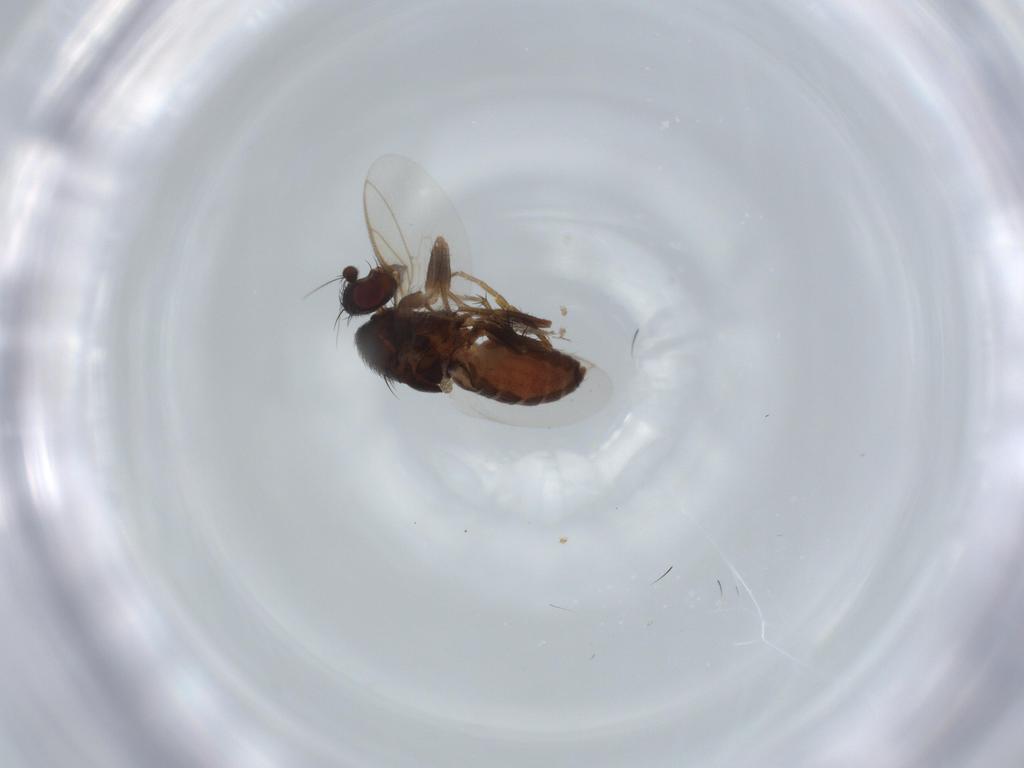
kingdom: Animalia
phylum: Arthropoda
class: Insecta
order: Diptera
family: Sphaeroceridae
